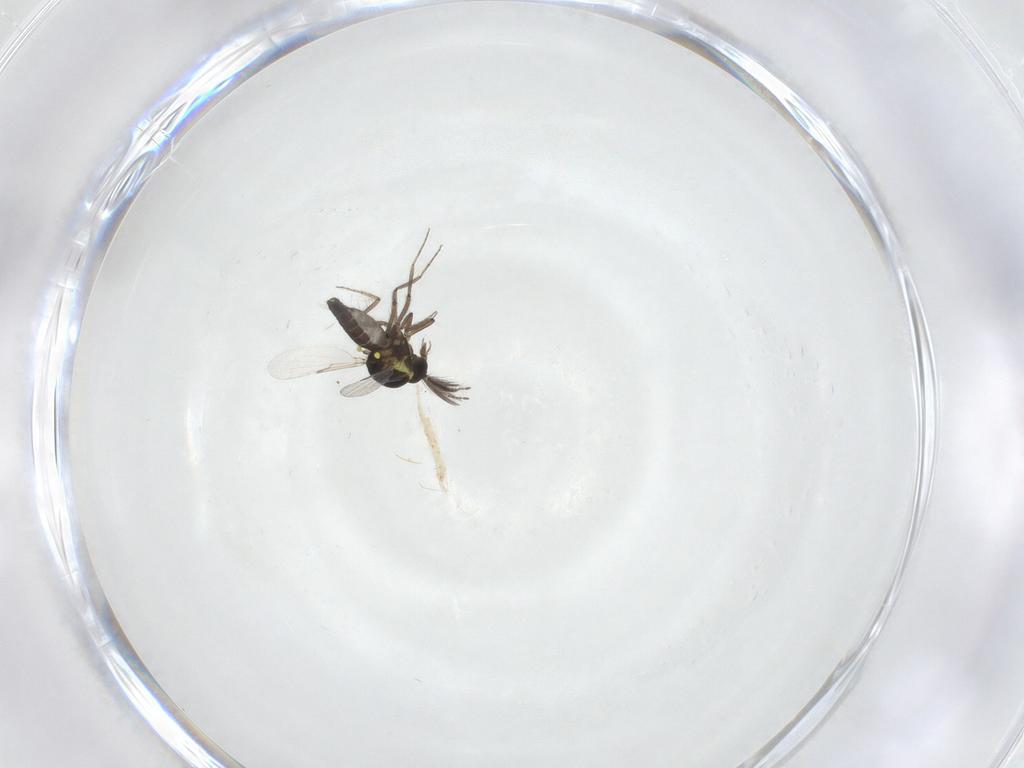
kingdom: Animalia
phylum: Arthropoda
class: Insecta
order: Diptera
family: Ceratopogonidae
